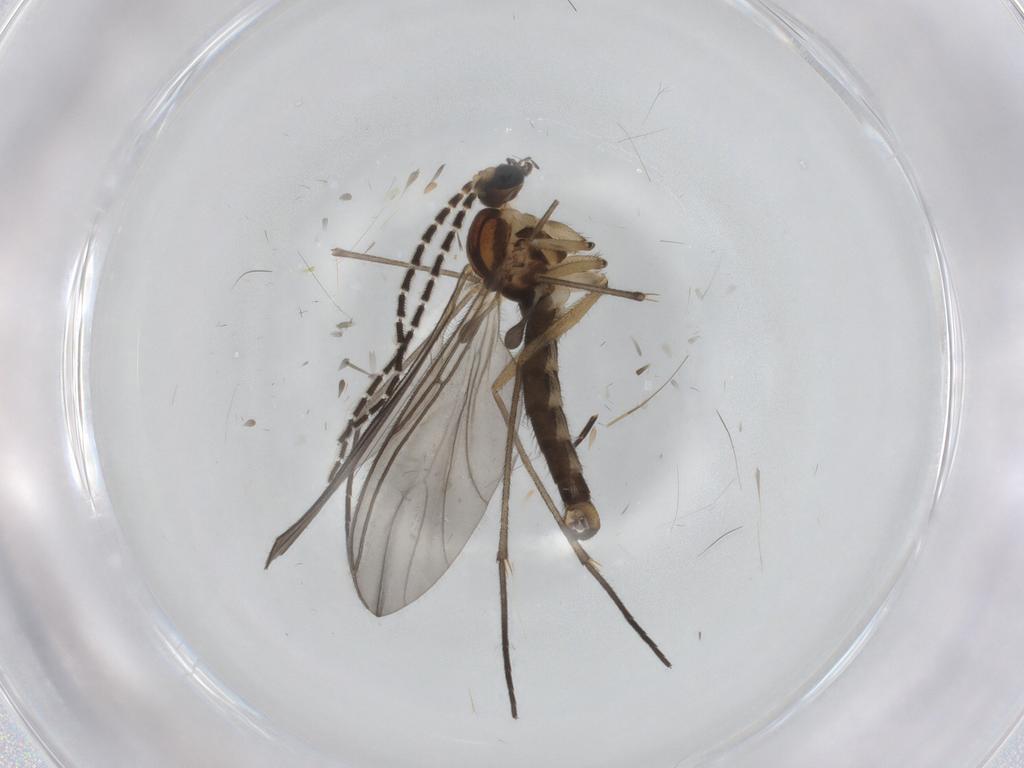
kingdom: Animalia
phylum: Arthropoda
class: Insecta
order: Diptera
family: Sciaridae
